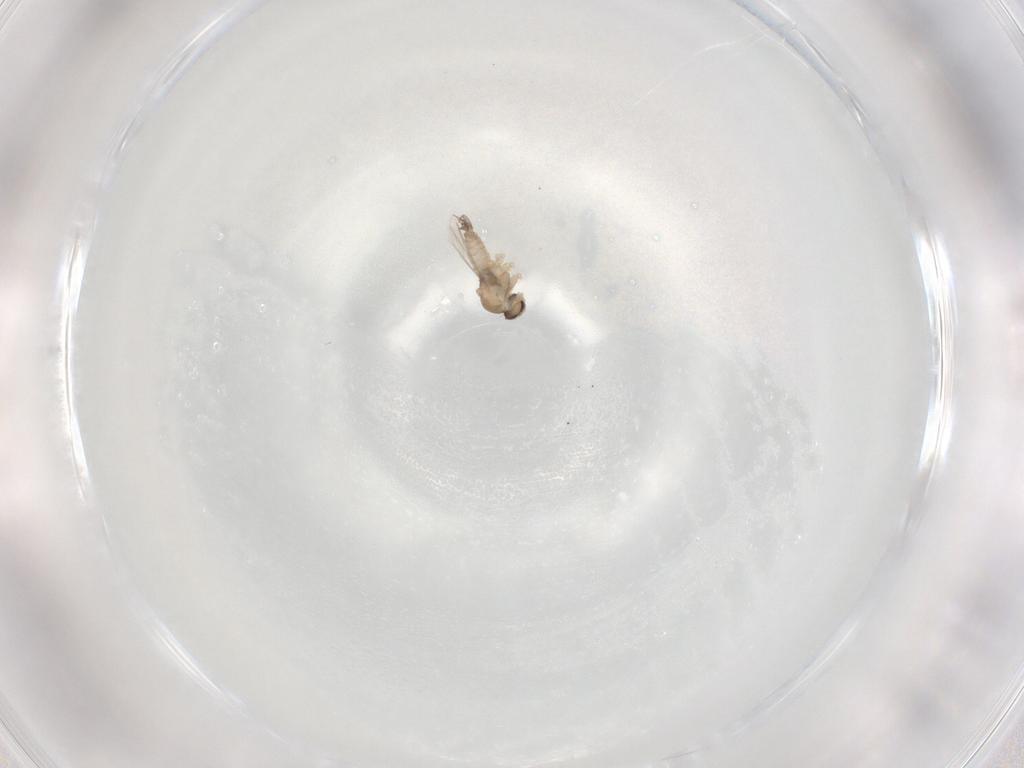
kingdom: Animalia
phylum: Arthropoda
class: Insecta
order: Diptera
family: Cecidomyiidae
